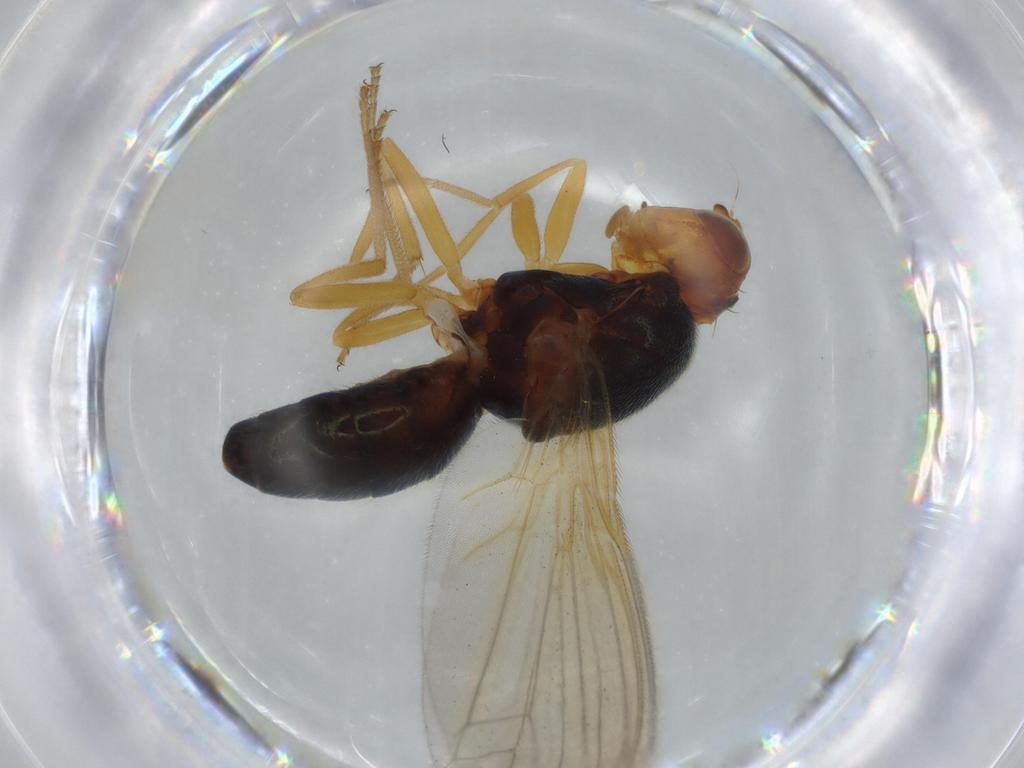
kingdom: Animalia
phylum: Arthropoda
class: Insecta
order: Diptera
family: Chironomidae
